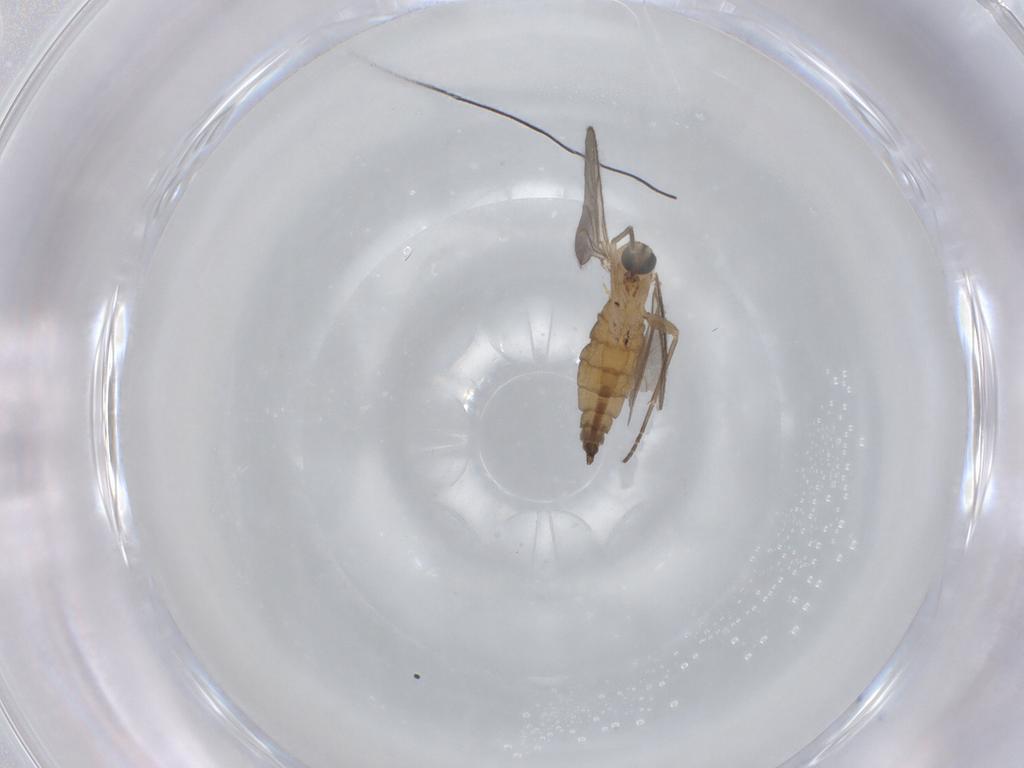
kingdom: Animalia
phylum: Arthropoda
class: Insecta
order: Diptera
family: Sciaridae
